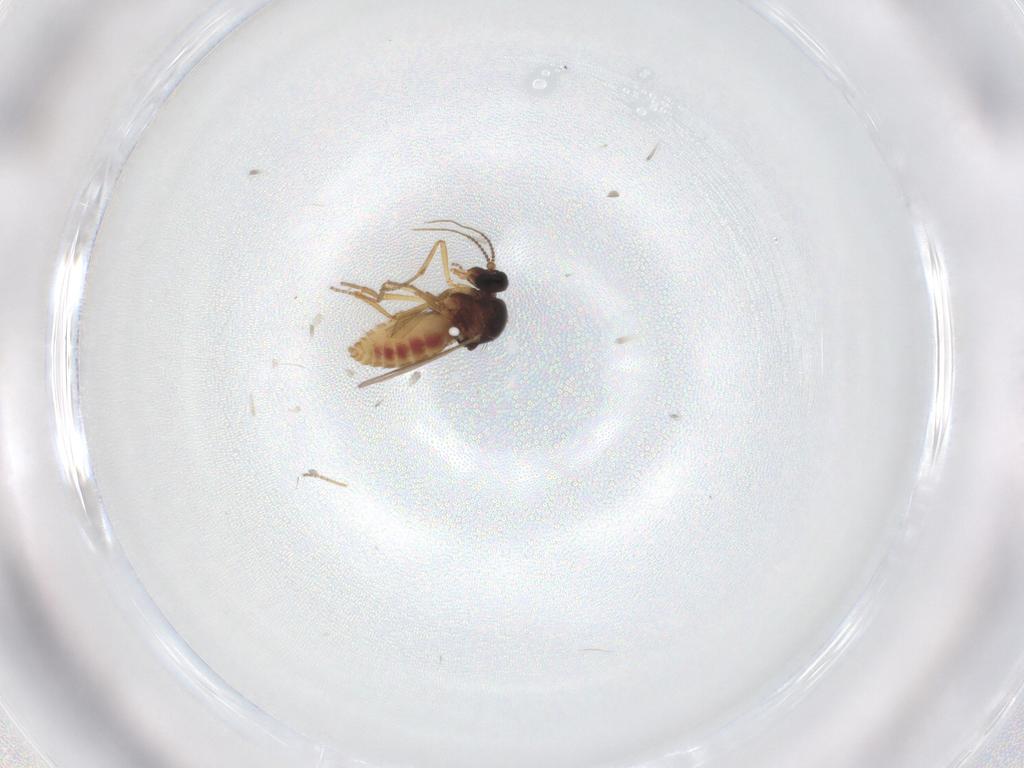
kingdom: Animalia
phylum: Arthropoda
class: Insecta
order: Diptera
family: Ceratopogonidae
